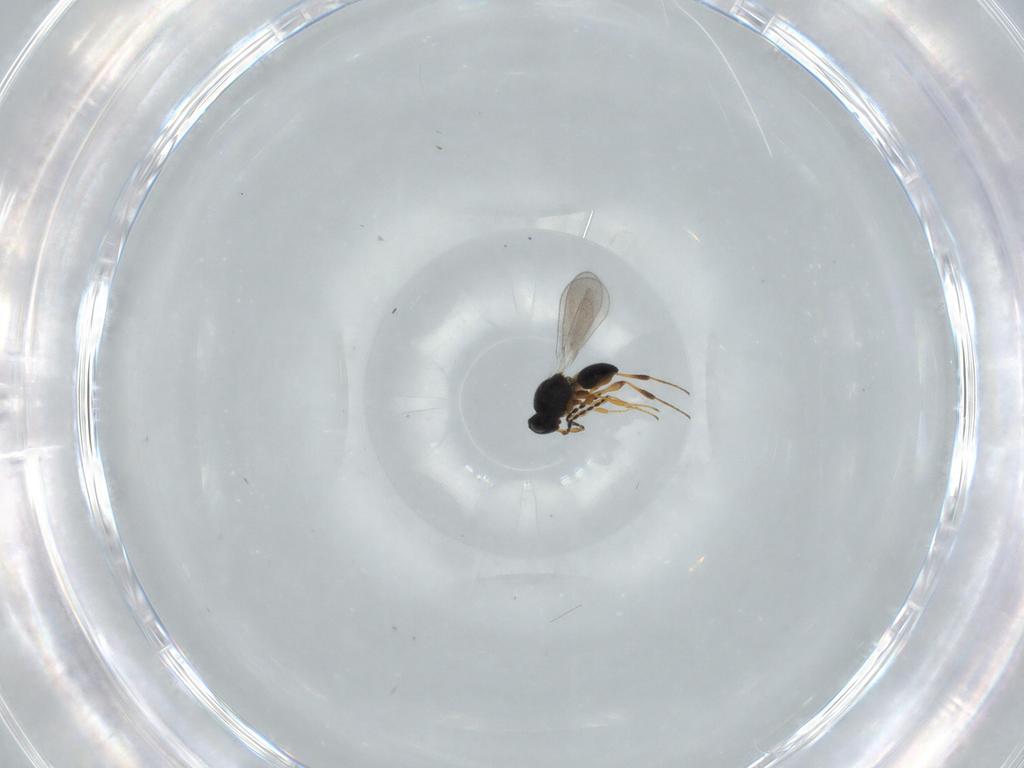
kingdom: Animalia
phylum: Arthropoda
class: Insecta
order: Hymenoptera
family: Platygastridae
